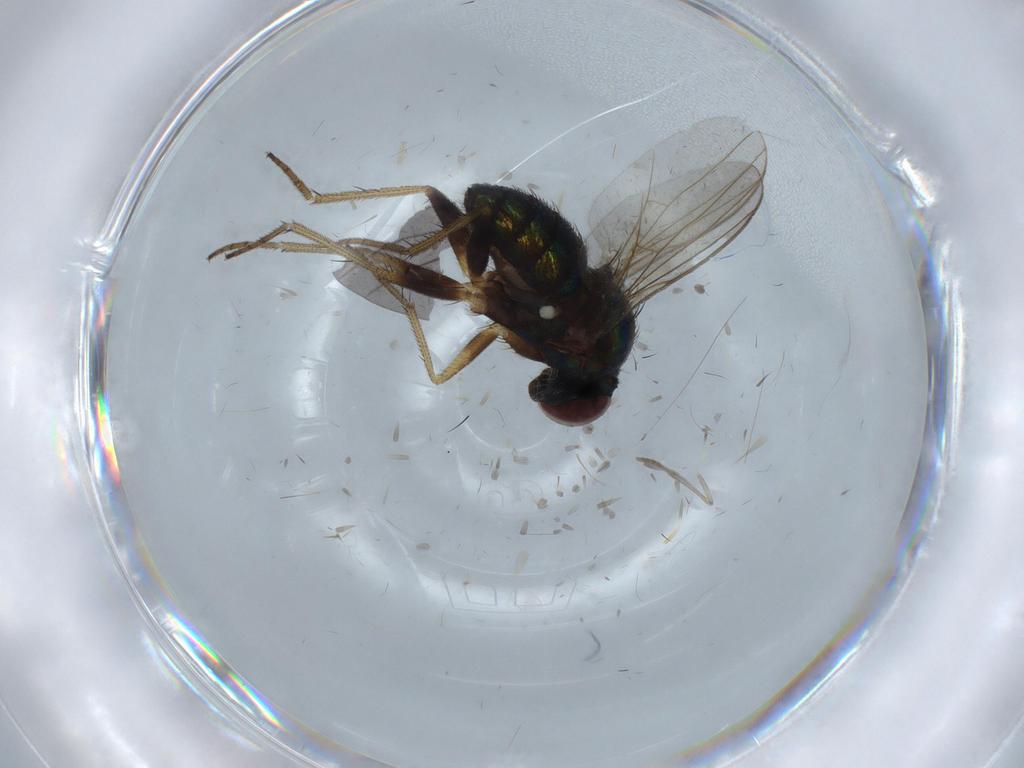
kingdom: Animalia
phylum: Arthropoda
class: Insecta
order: Diptera
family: Psychodidae
